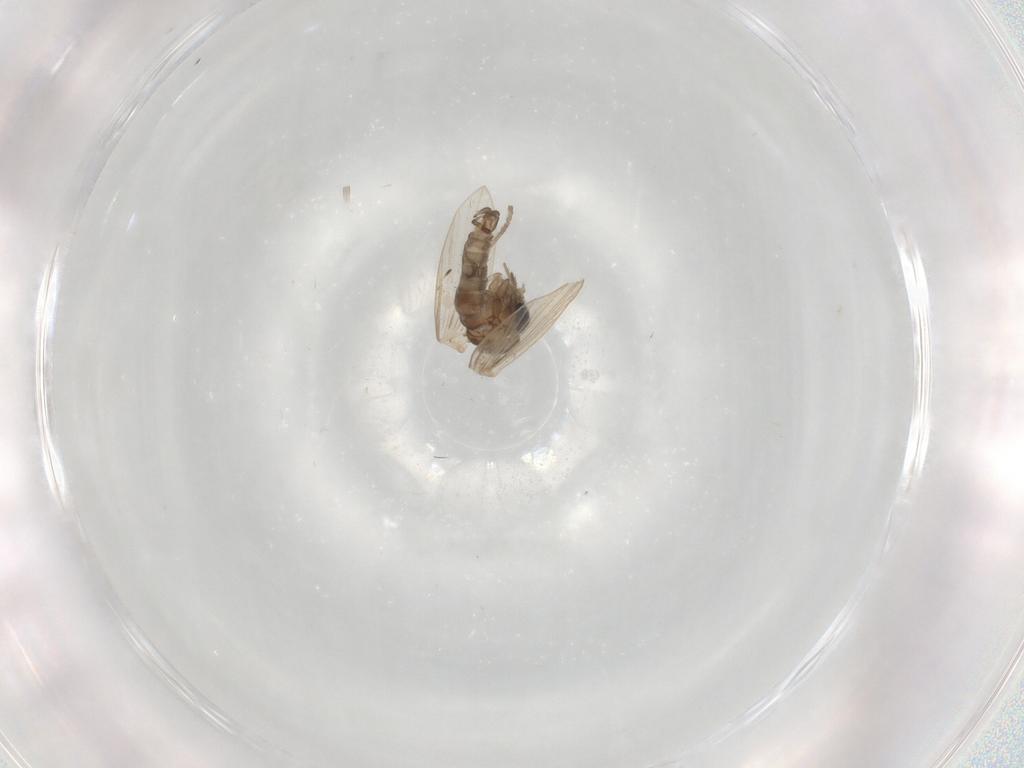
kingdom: Animalia
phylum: Arthropoda
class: Insecta
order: Diptera
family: Psychodidae
